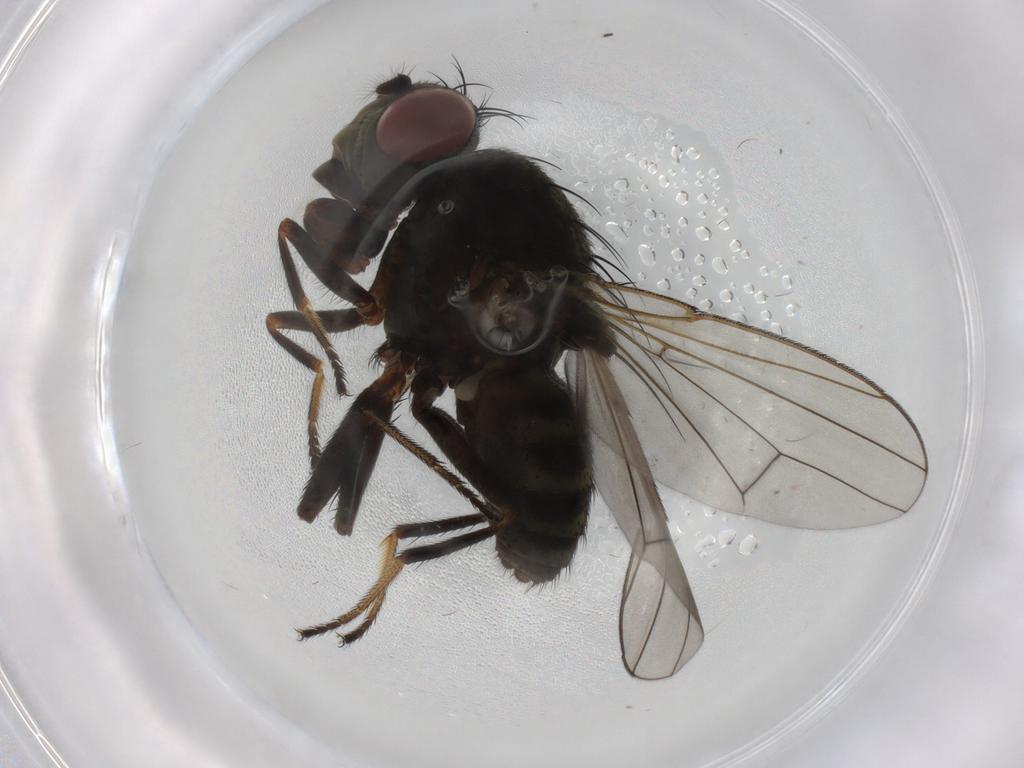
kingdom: Animalia
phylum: Arthropoda
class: Insecta
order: Diptera
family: Ephydridae
